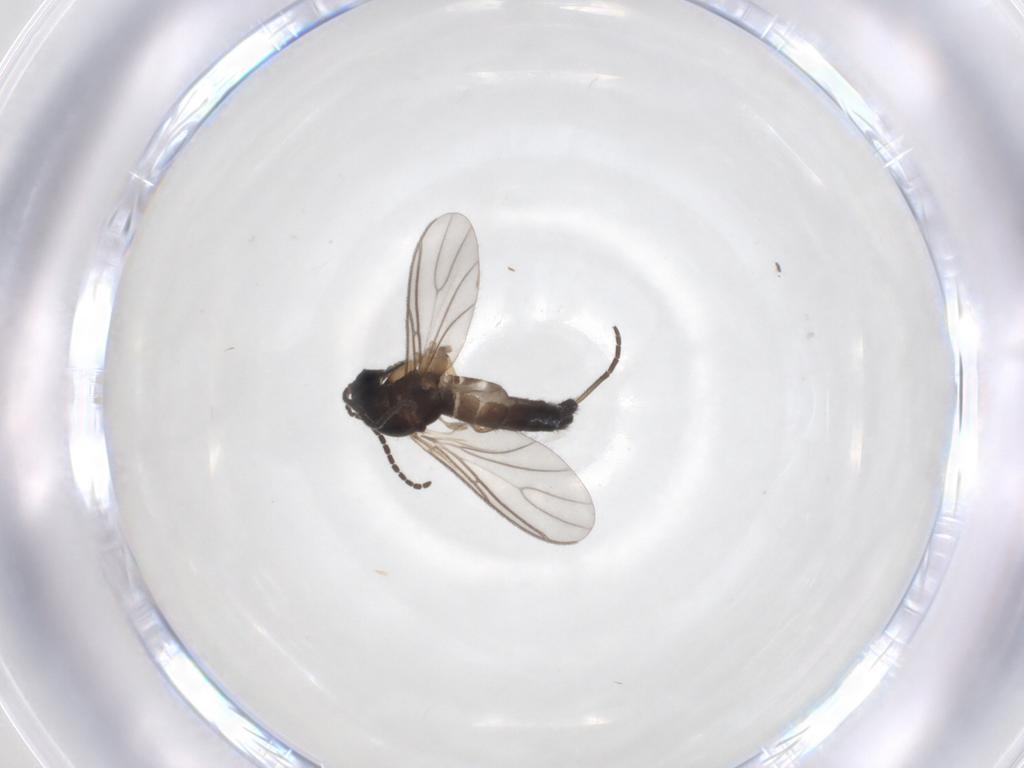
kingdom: Animalia
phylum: Arthropoda
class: Insecta
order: Diptera
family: Sciaridae
